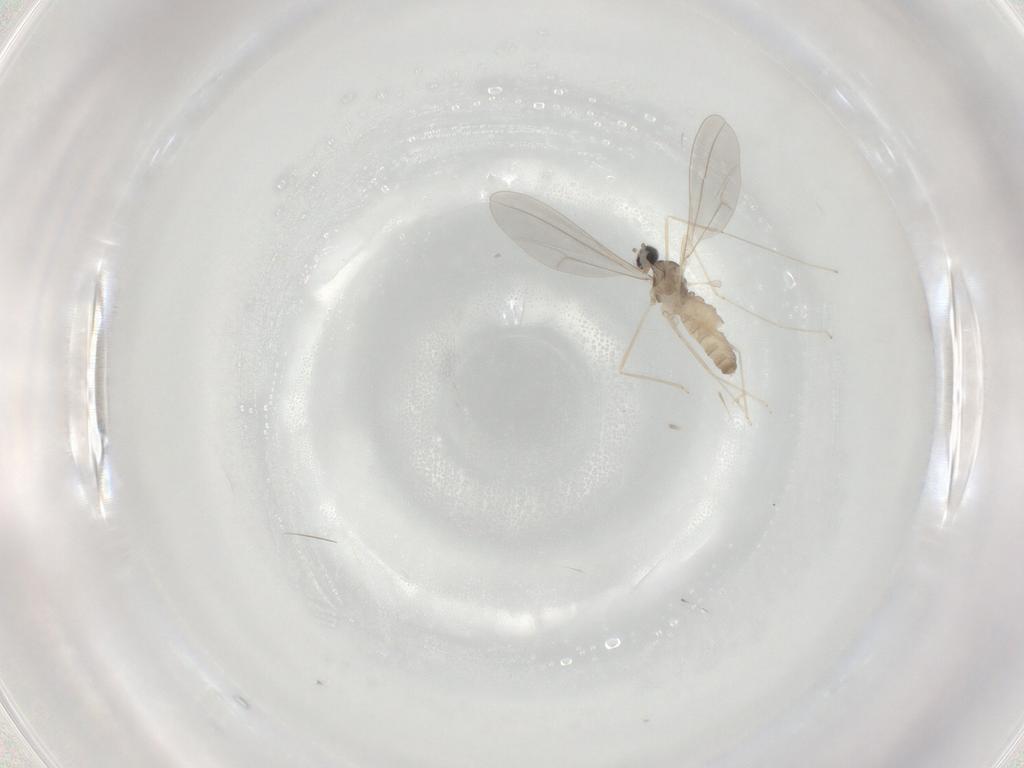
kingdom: Animalia
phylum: Arthropoda
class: Insecta
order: Diptera
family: Cecidomyiidae
